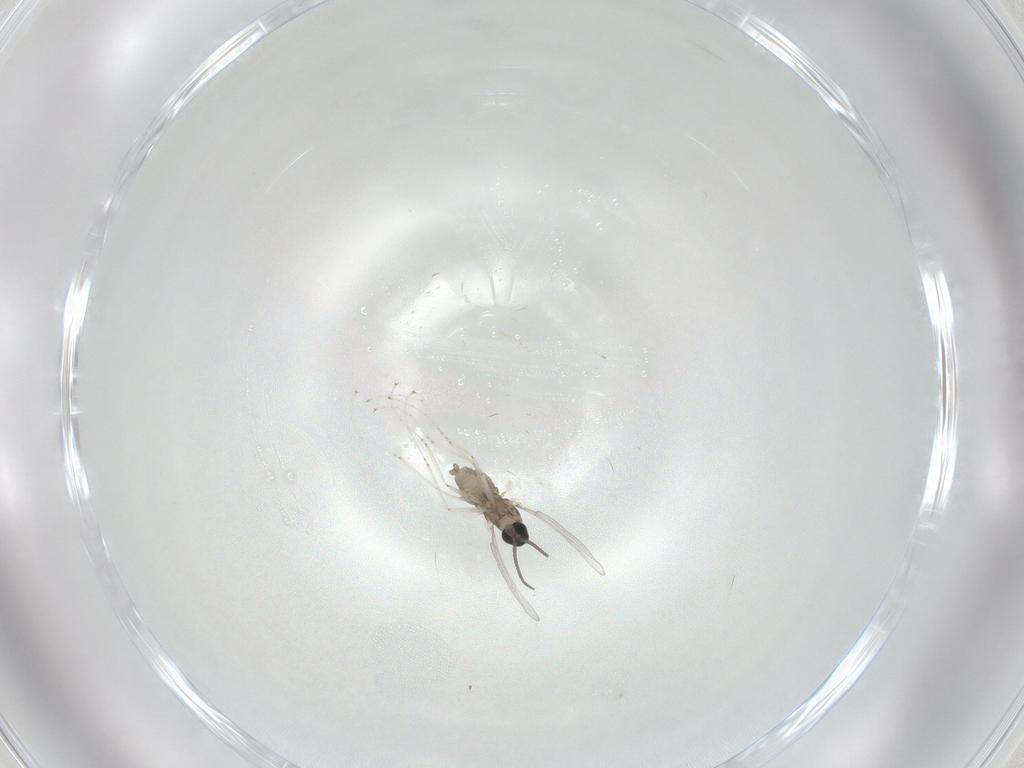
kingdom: Animalia
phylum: Arthropoda
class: Insecta
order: Diptera
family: Cecidomyiidae
